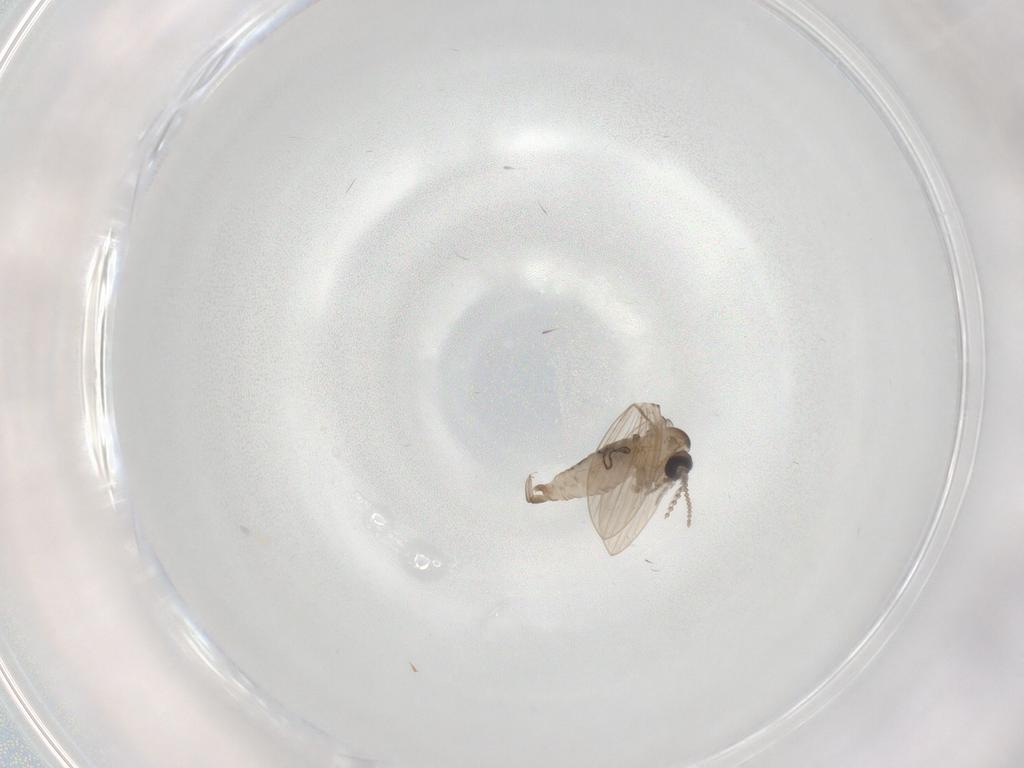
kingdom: Animalia
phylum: Arthropoda
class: Insecta
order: Diptera
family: Psychodidae
